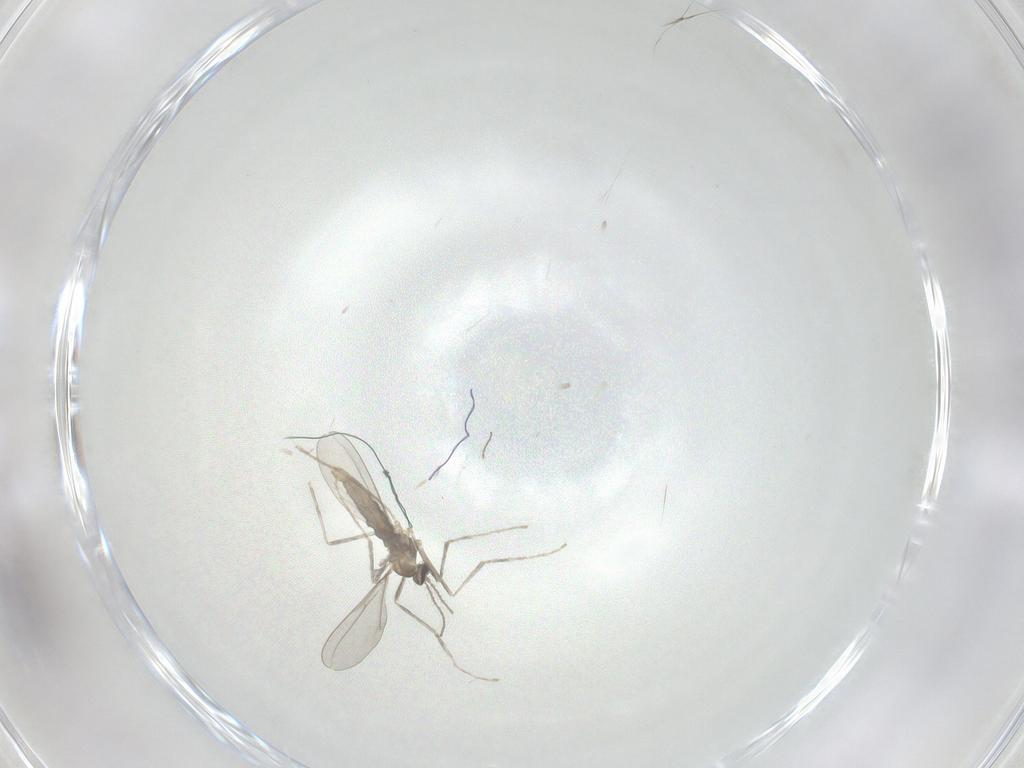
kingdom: Animalia
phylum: Arthropoda
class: Insecta
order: Diptera
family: Cecidomyiidae
